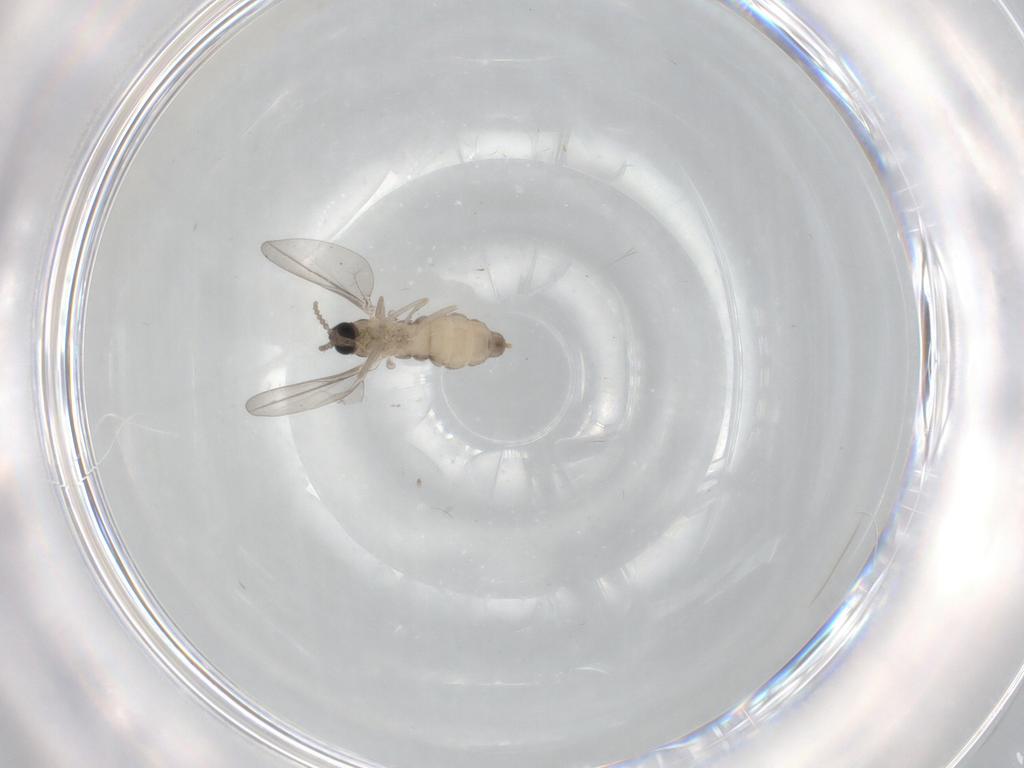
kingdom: Animalia
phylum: Arthropoda
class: Insecta
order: Diptera
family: Cecidomyiidae
